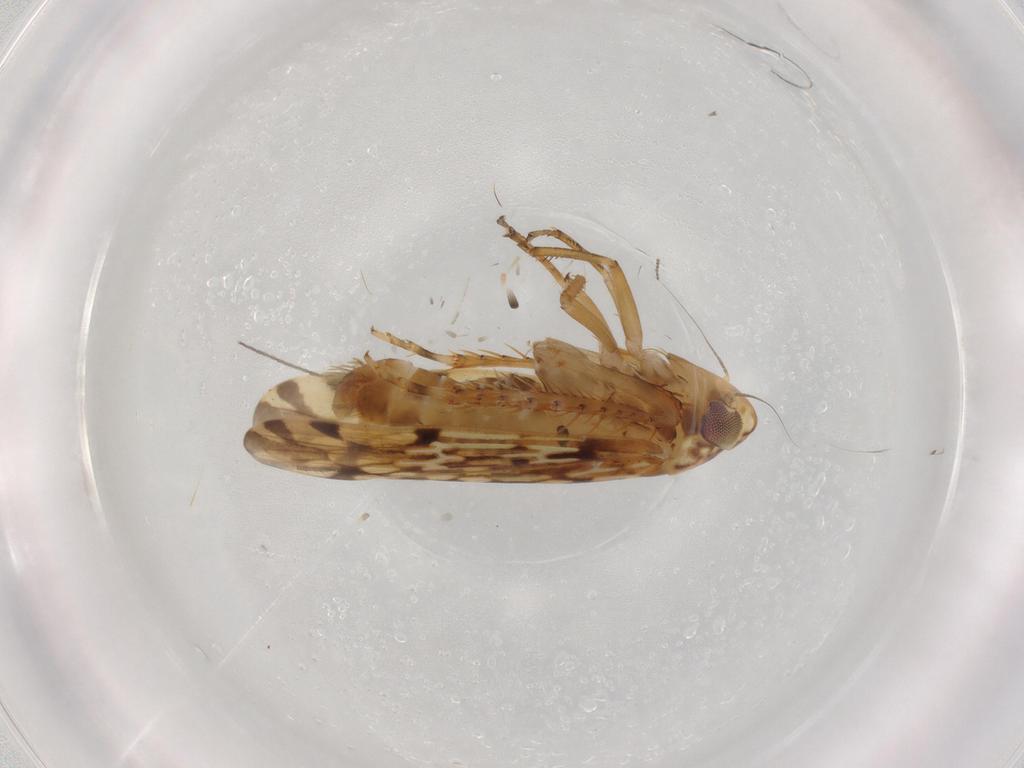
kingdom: Animalia
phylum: Arthropoda
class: Insecta
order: Hemiptera
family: Cicadellidae
